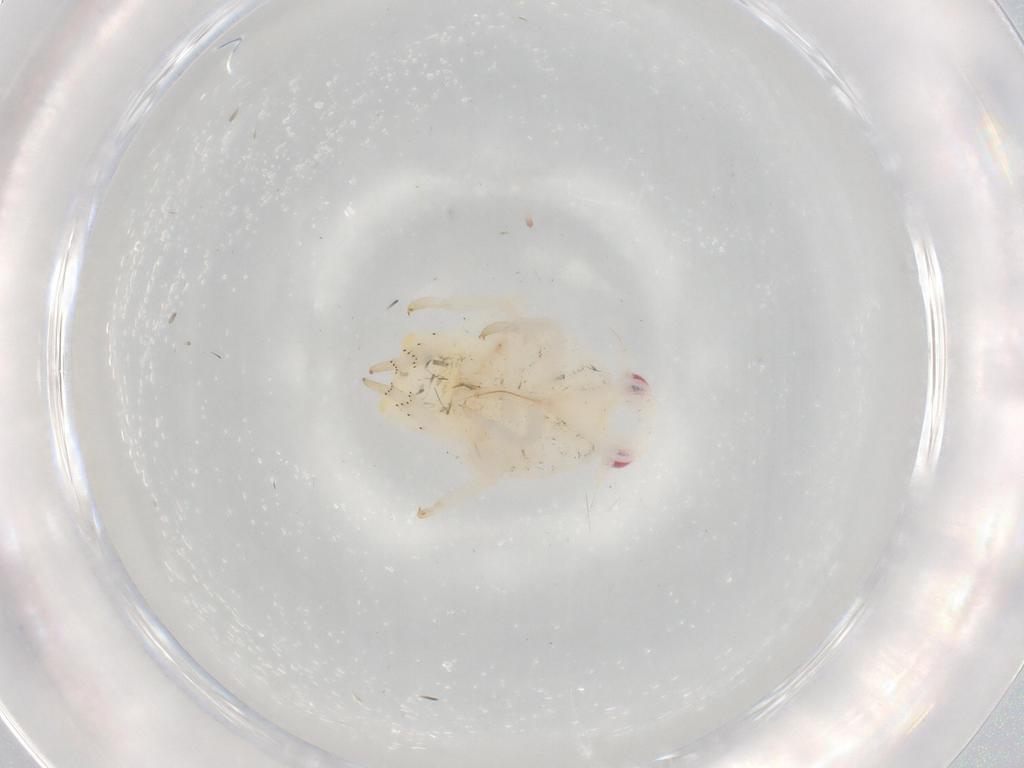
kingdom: Animalia
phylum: Arthropoda
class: Insecta
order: Hemiptera
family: Flatidae
